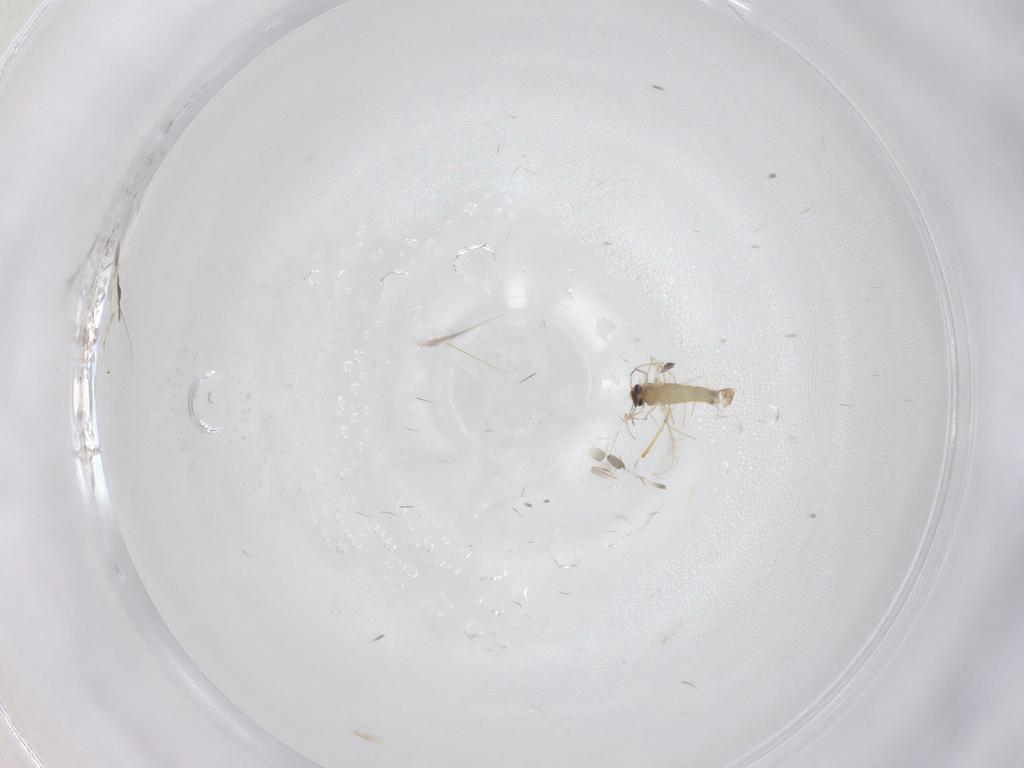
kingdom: Animalia
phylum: Arthropoda
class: Insecta
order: Diptera
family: Chironomidae
